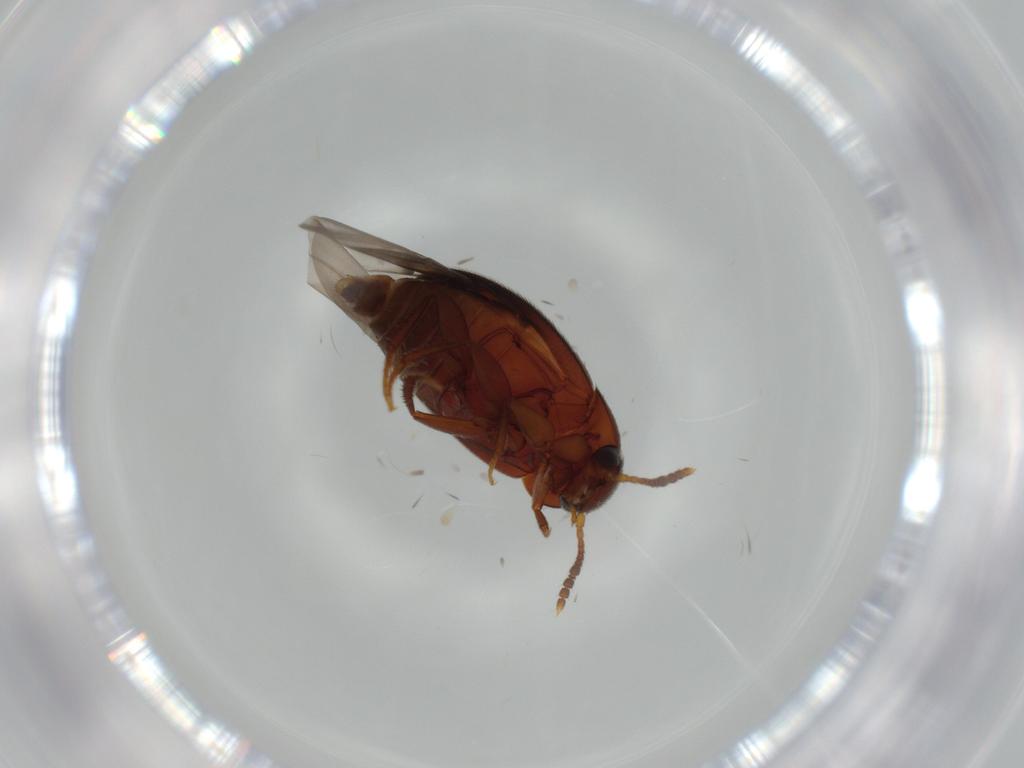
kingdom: Animalia
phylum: Arthropoda
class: Insecta
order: Coleoptera
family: Leiodidae
